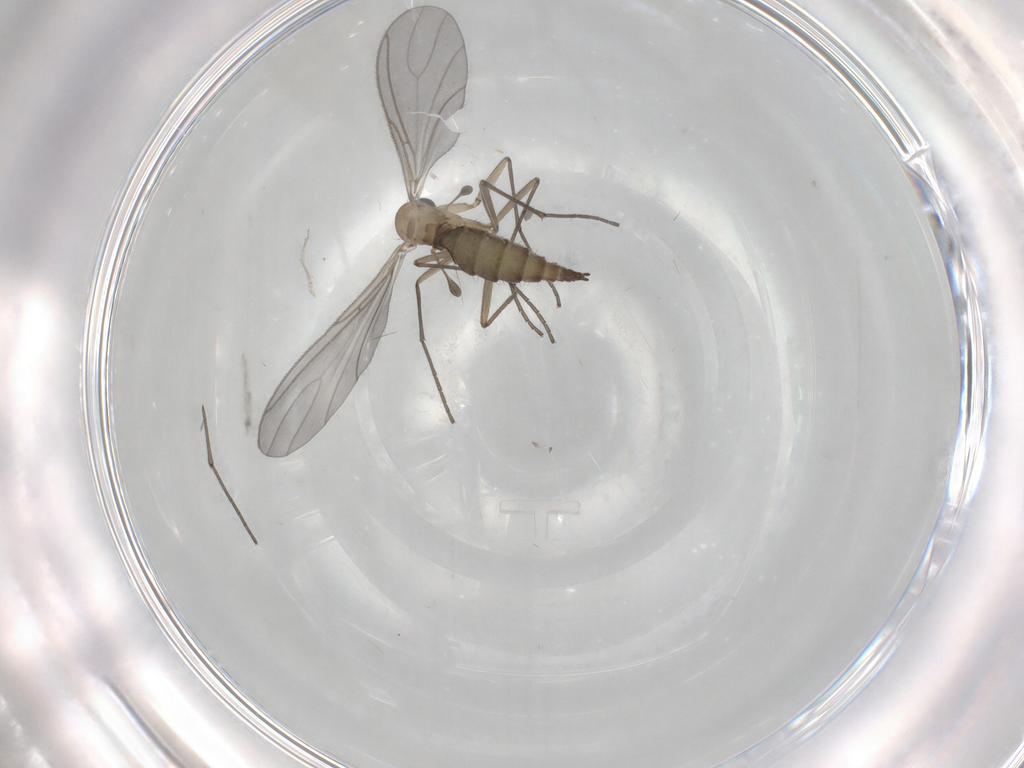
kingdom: Animalia
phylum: Arthropoda
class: Insecta
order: Diptera
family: Sciaridae
